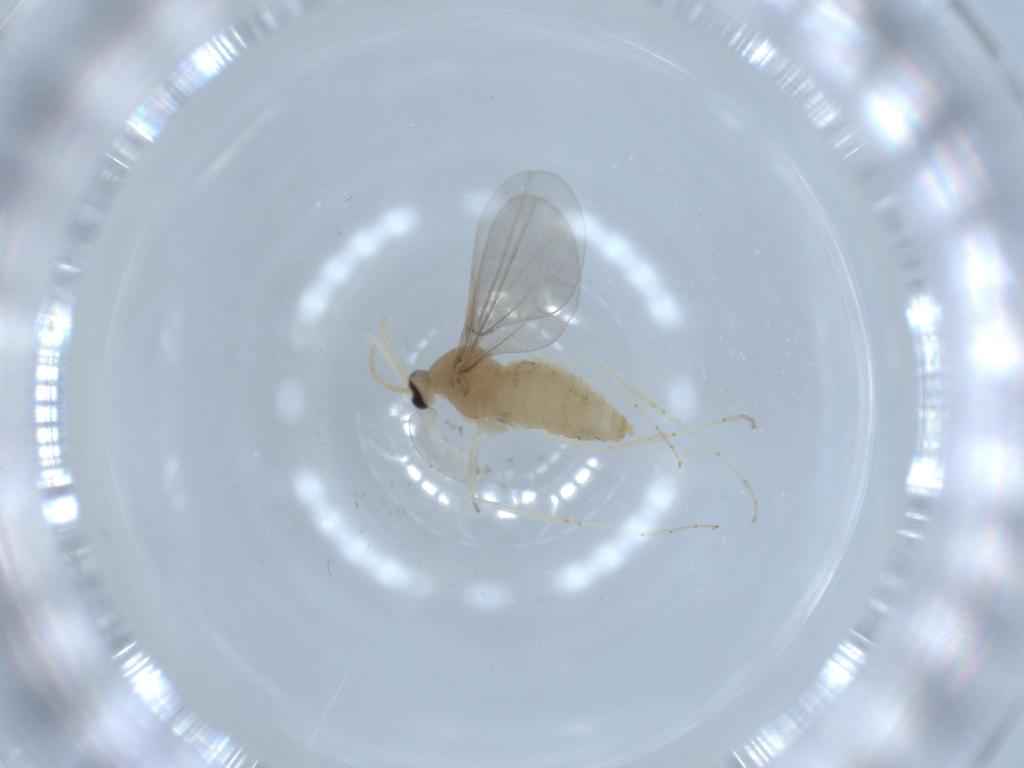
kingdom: Animalia
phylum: Arthropoda
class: Insecta
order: Diptera
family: Cecidomyiidae
